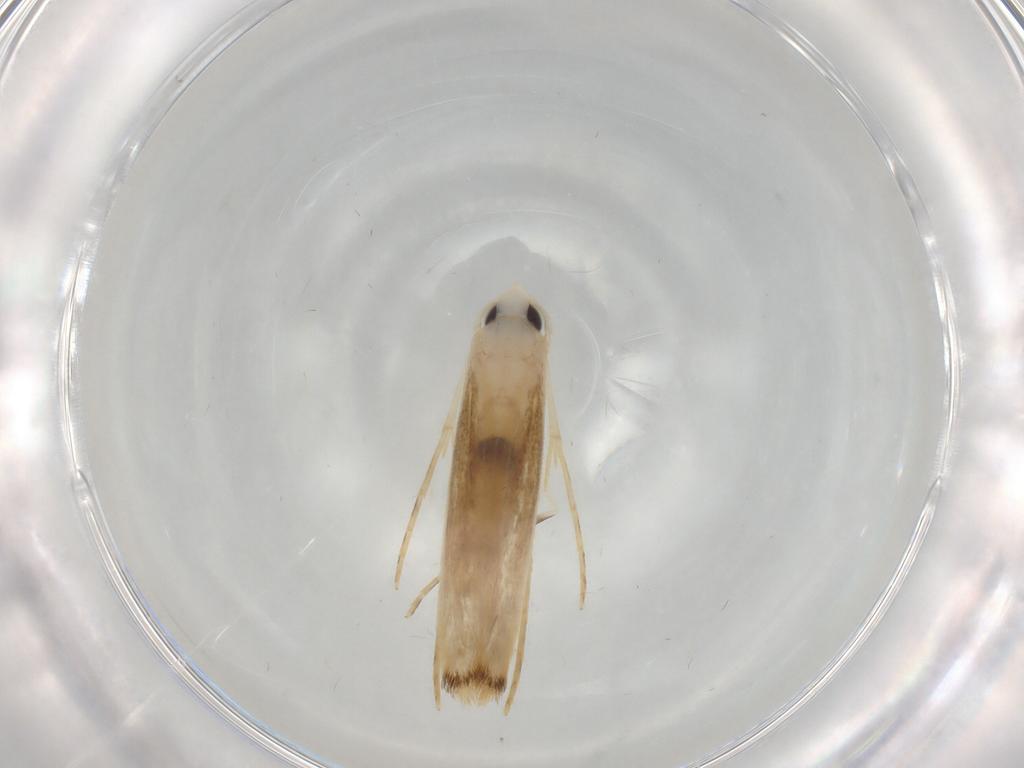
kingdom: Animalia
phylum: Arthropoda
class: Insecta
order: Lepidoptera
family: Lyonetiidae
